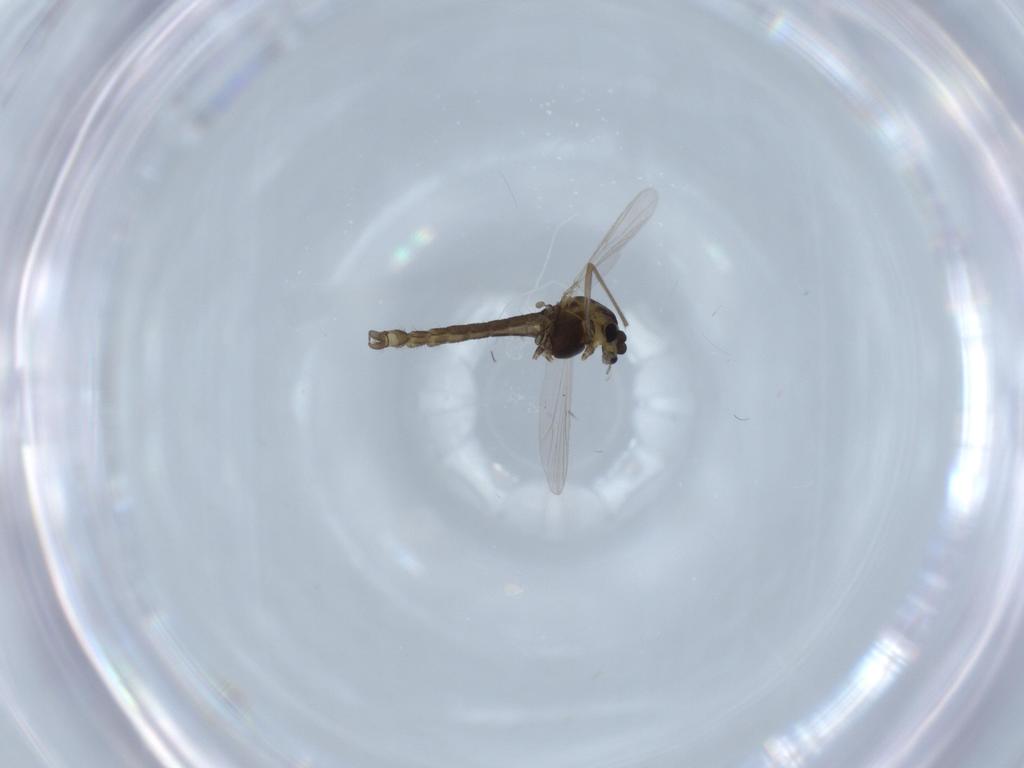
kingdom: Animalia
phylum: Arthropoda
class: Insecta
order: Diptera
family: Chironomidae
